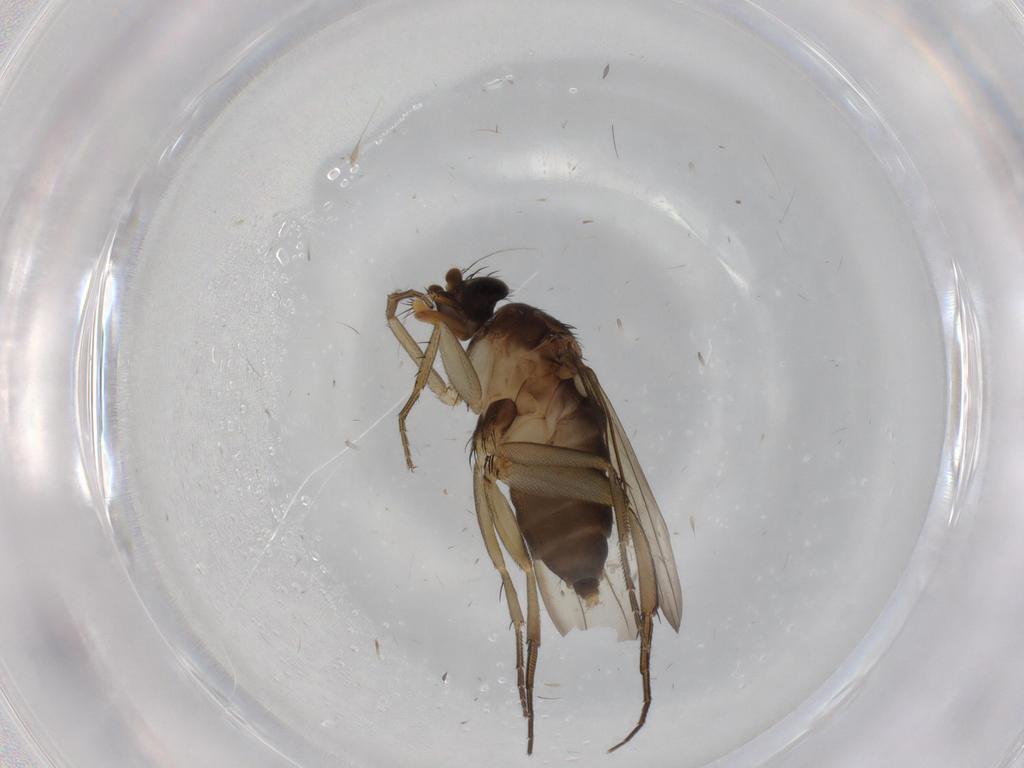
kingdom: Animalia
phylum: Arthropoda
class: Insecta
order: Diptera
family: Cecidomyiidae
